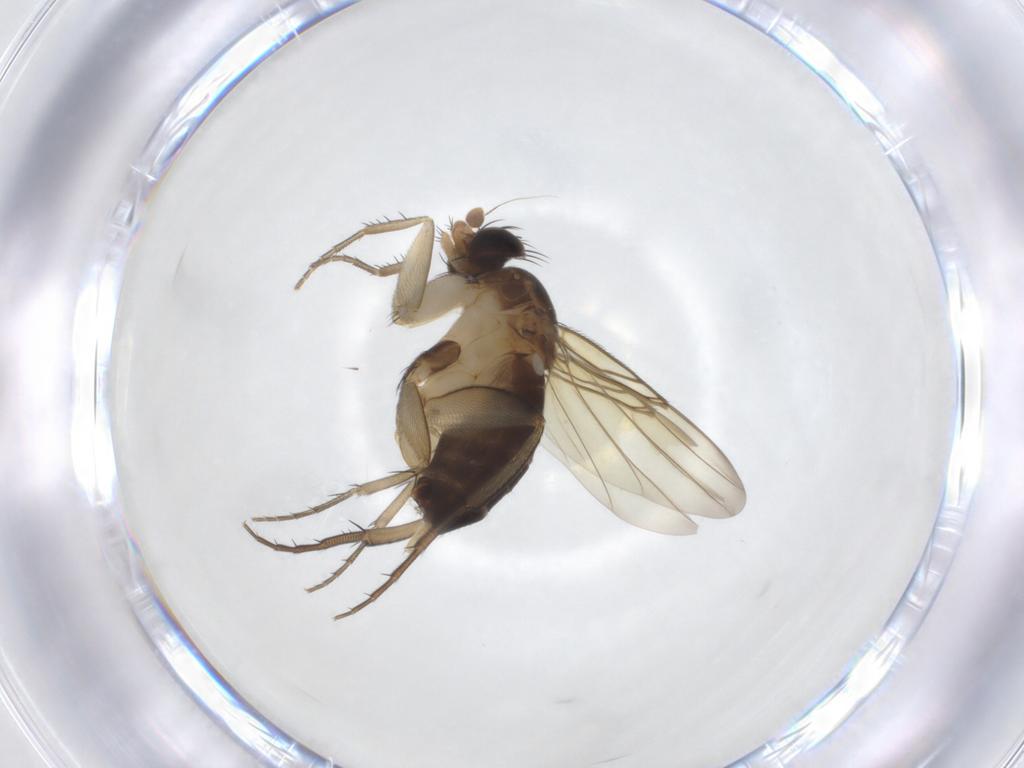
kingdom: Animalia
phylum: Arthropoda
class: Insecta
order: Diptera
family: Phoridae
